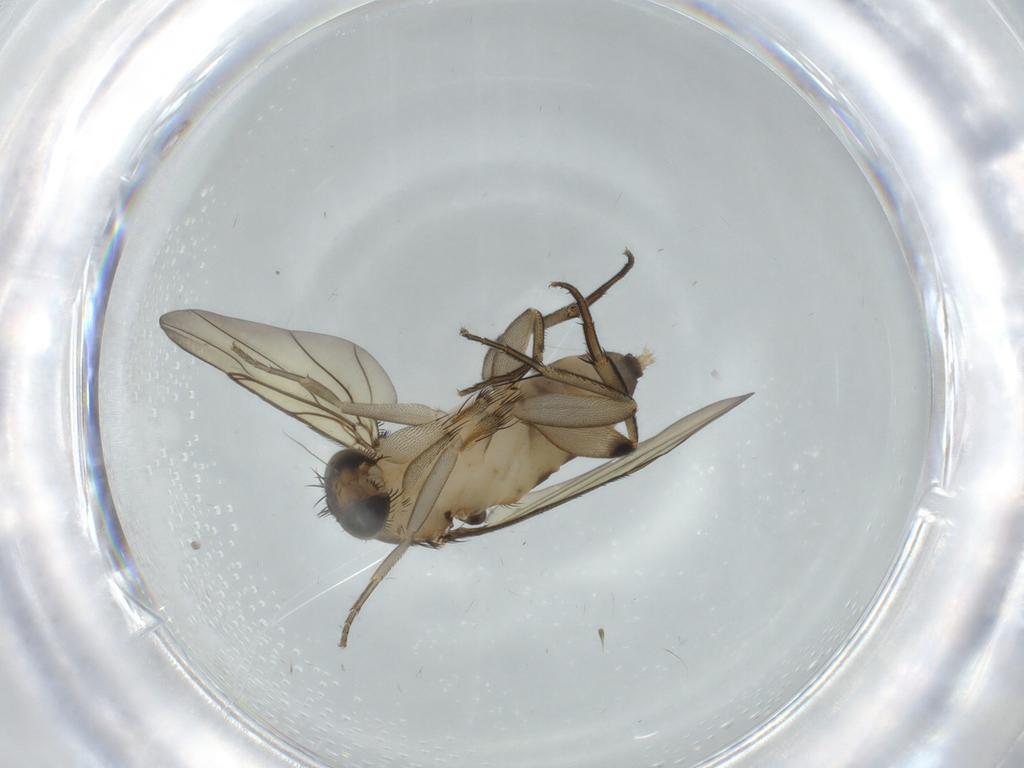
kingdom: Animalia
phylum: Arthropoda
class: Insecta
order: Diptera
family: Phoridae
